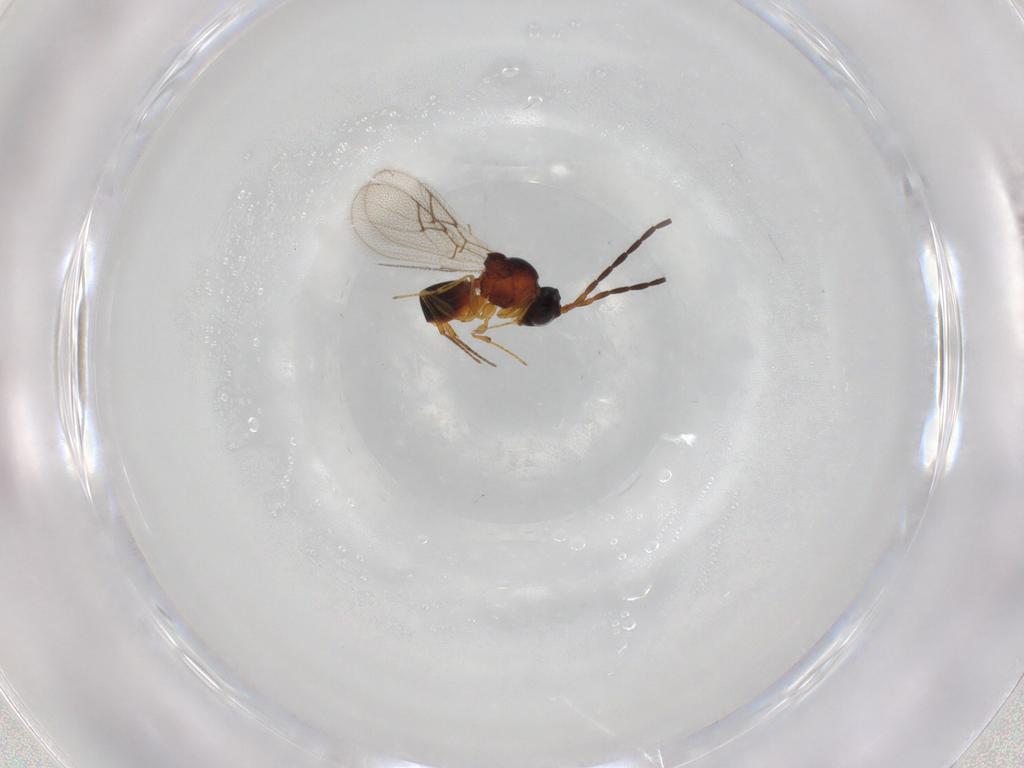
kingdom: Animalia
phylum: Arthropoda
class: Insecta
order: Hymenoptera
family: Figitidae
